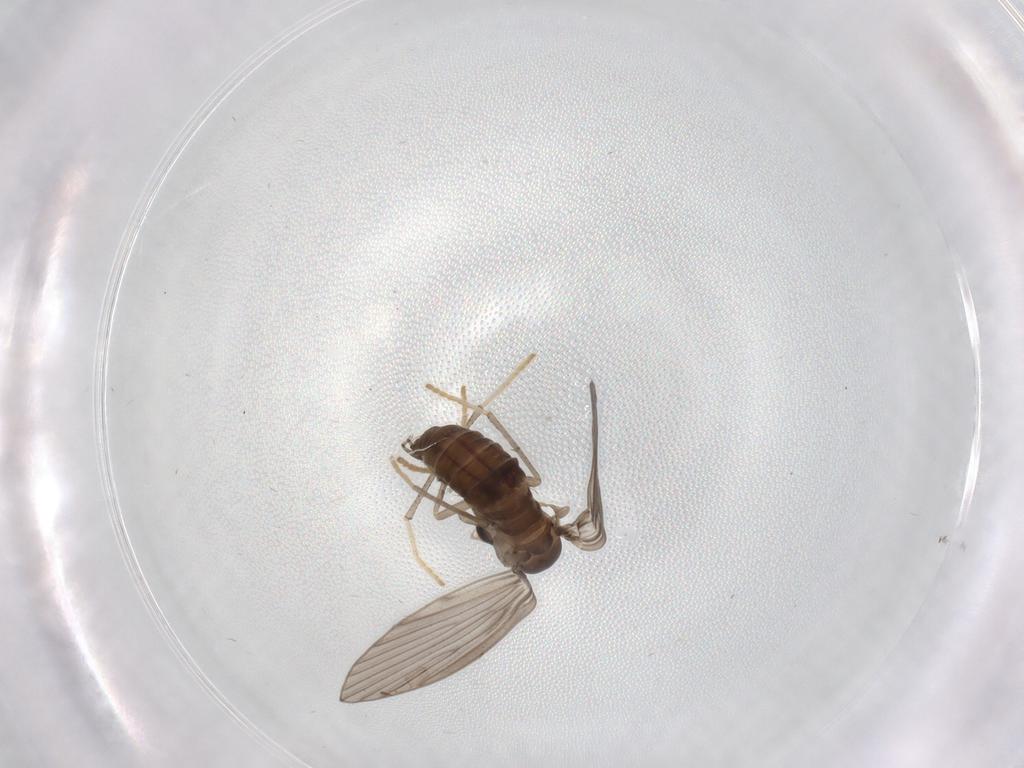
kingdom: Animalia
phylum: Arthropoda
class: Insecta
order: Diptera
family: Psychodidae
